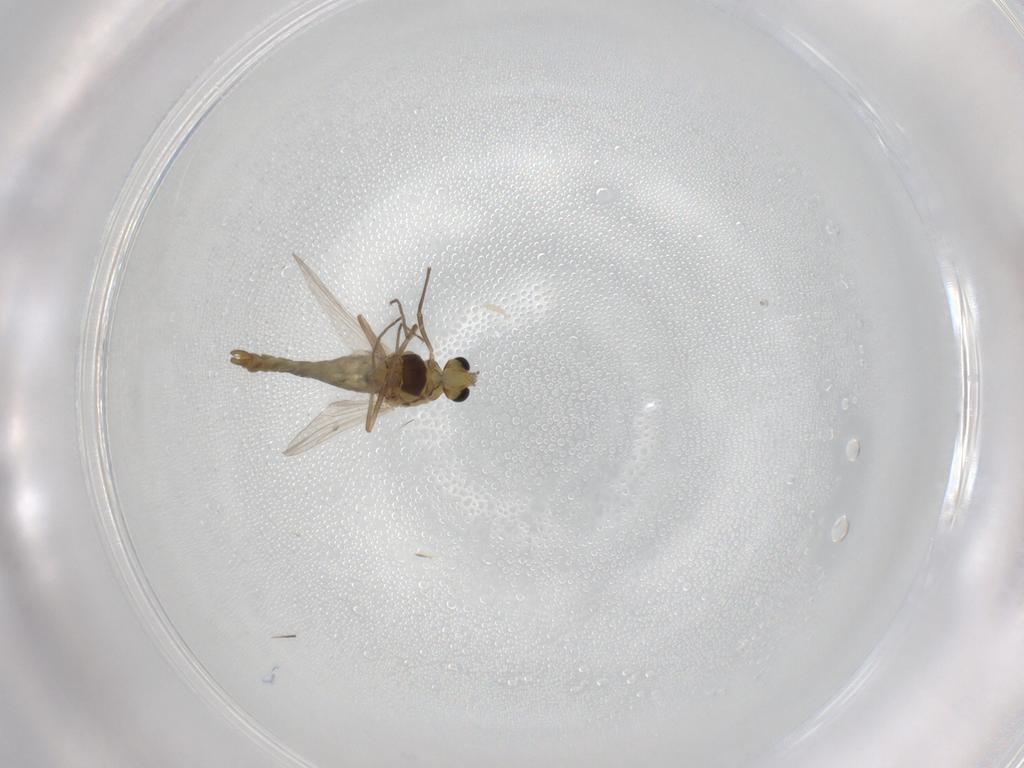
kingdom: Animalia
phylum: Arthropoda
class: Insecta
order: Diptera
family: Chironomidae
